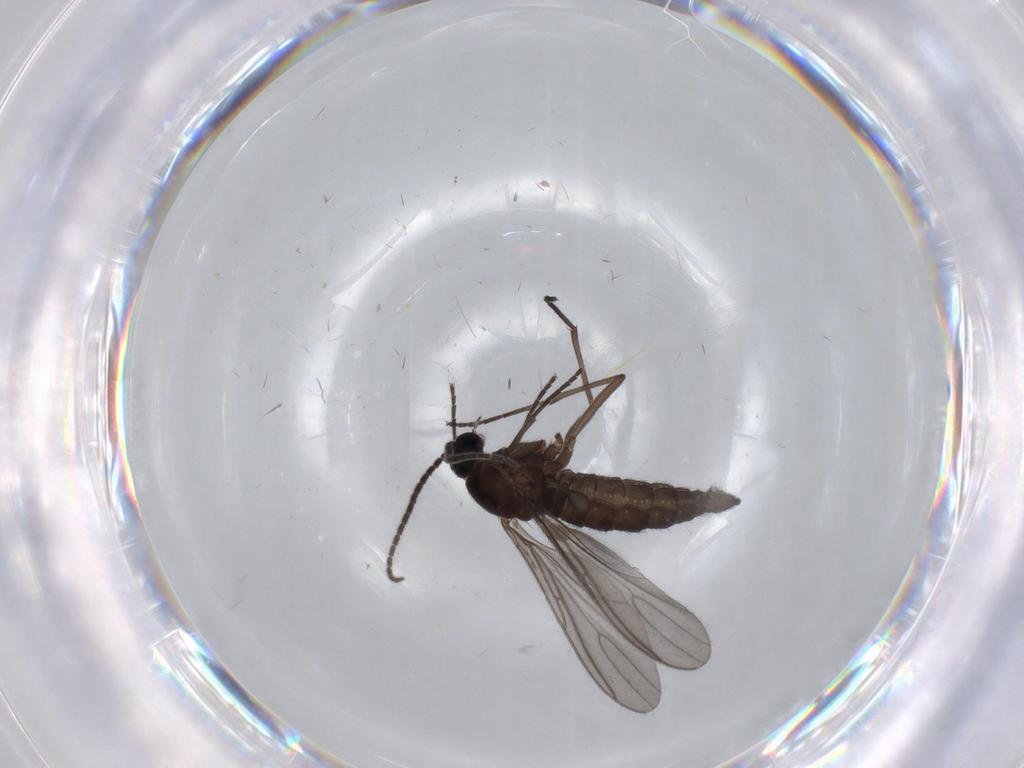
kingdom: Animalia
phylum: Arthropoda
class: Insecta
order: Diptera
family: Sciaridae
